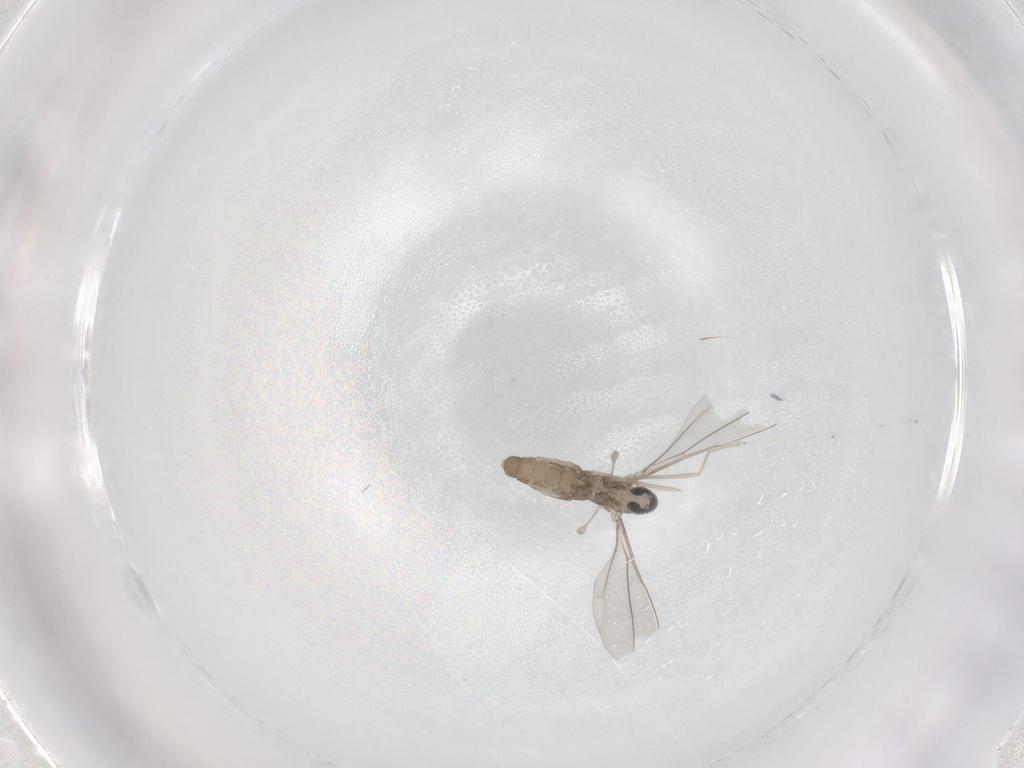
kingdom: Animalia
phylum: Arthropoda
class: Insecta
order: Diptera
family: Cecidomyiidae
